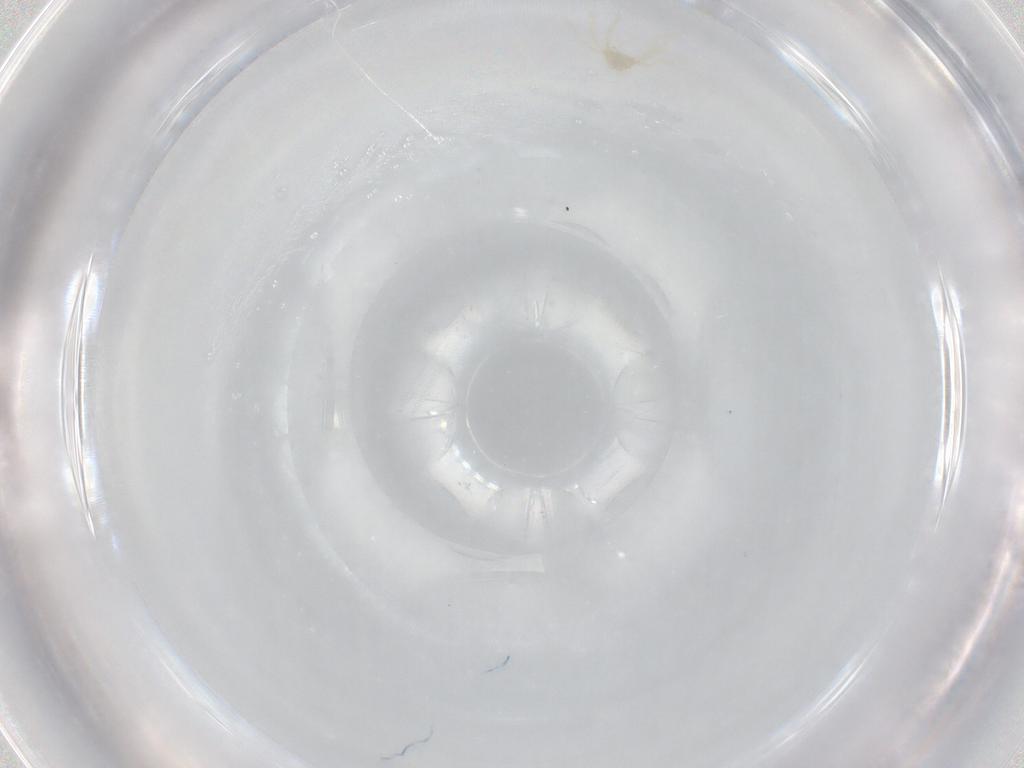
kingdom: Animalia
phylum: Arthropoda
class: Arachnida
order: Trombidiformes
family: Erythraeidae
